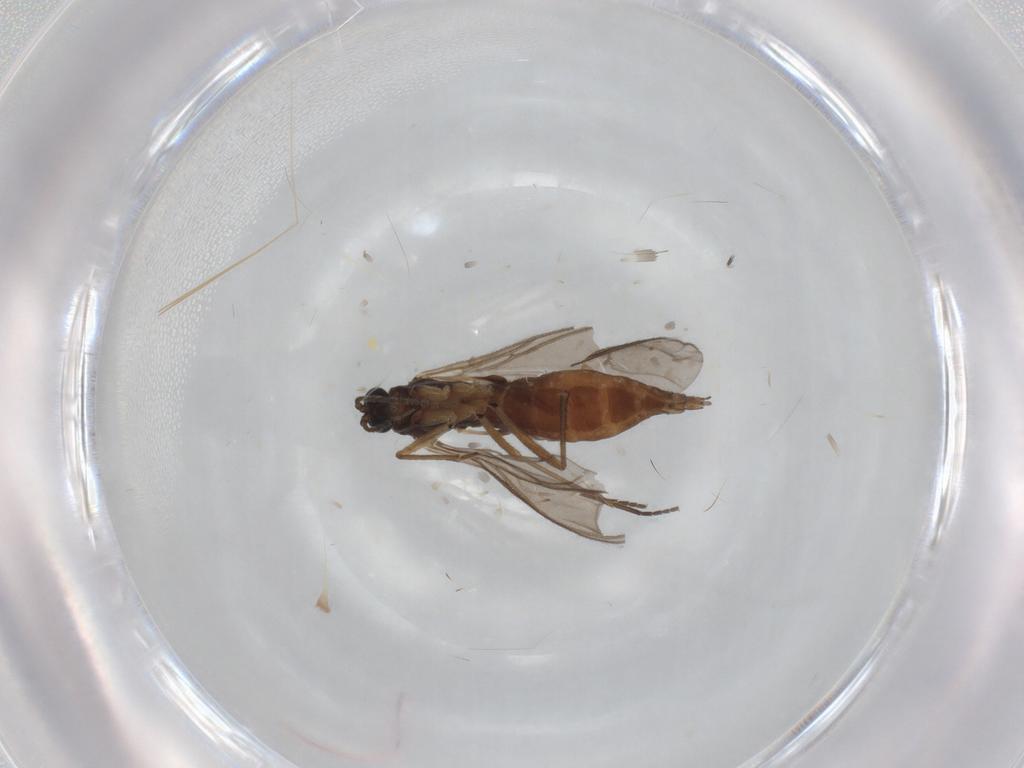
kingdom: Animalia
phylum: Arthropoda
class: Insecta
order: Diptera
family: Sciaridae
